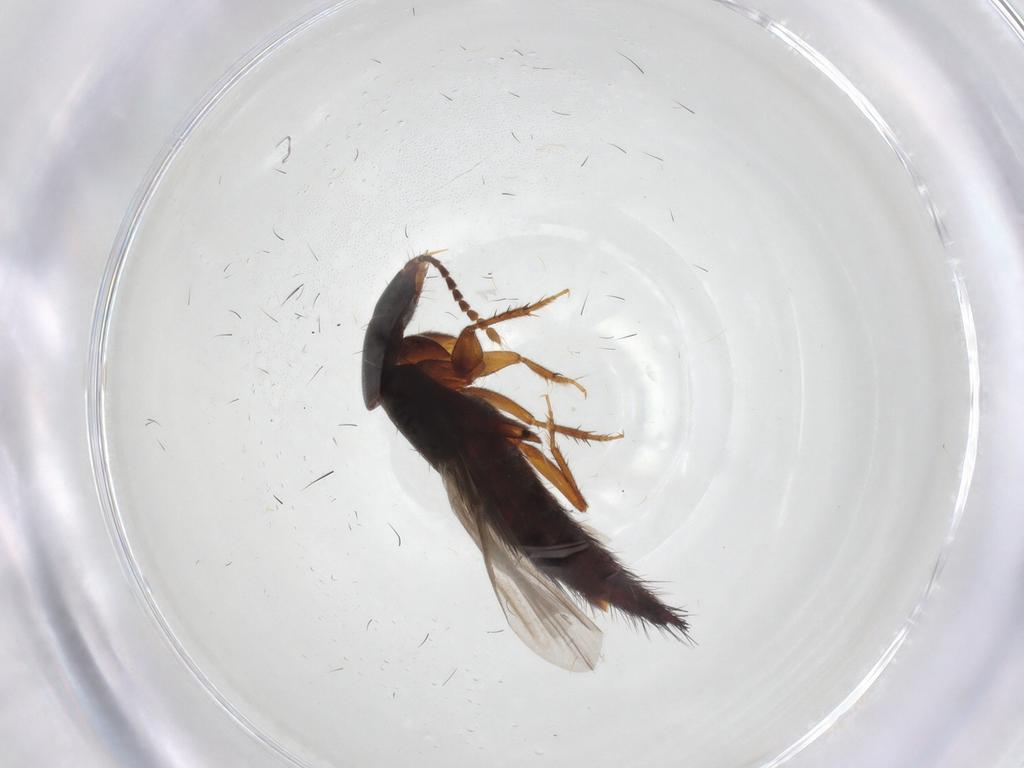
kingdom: Animalia
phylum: Arthropoda
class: Insecta
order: Coleoptera
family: Staphylinidae
